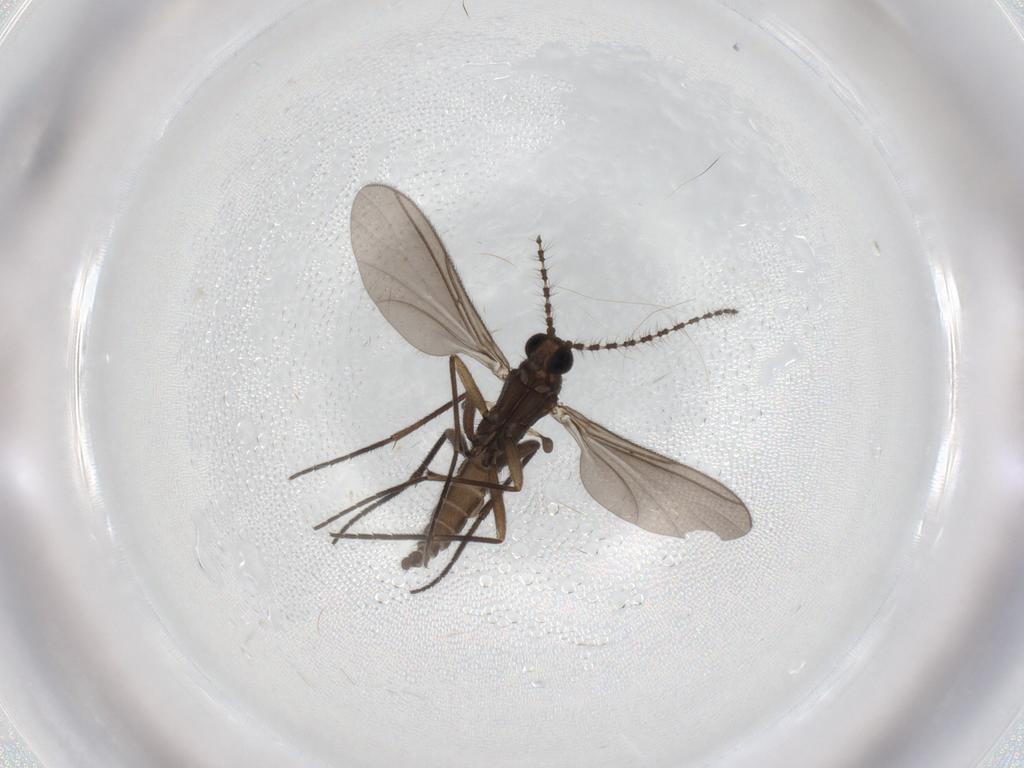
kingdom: Animalia
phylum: Arthropoda
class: Insecta
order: Diptera
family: Sciaridae
